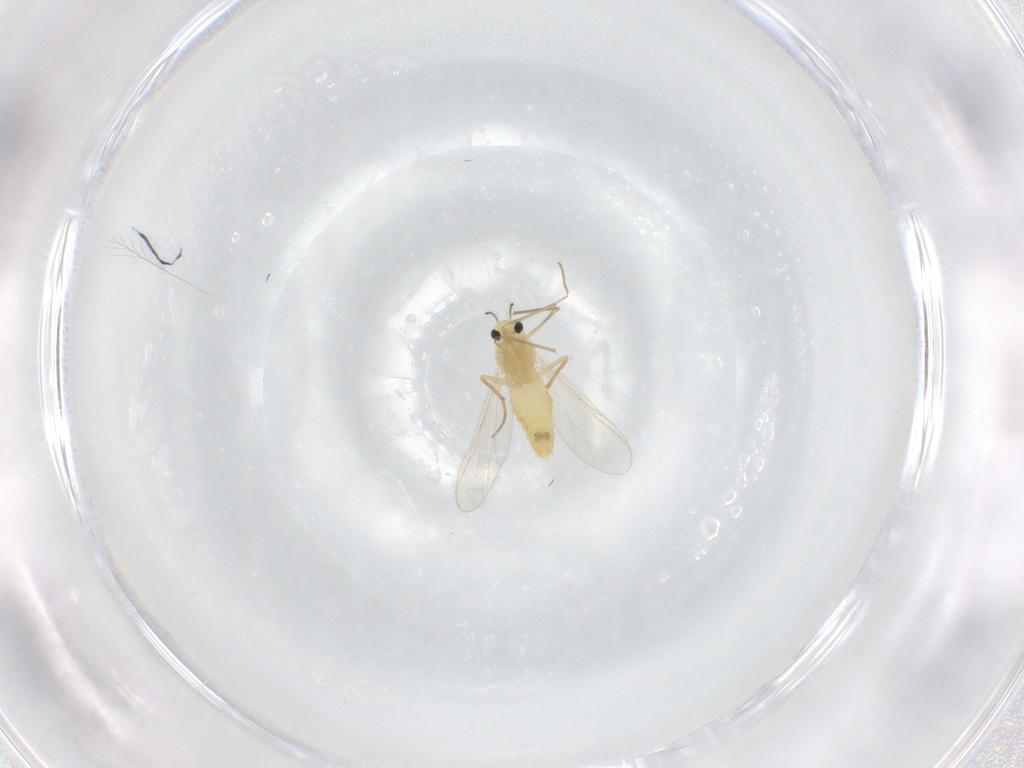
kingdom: Animalia
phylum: Arthropoda
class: Insecta
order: Diptera
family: Chironomidae
